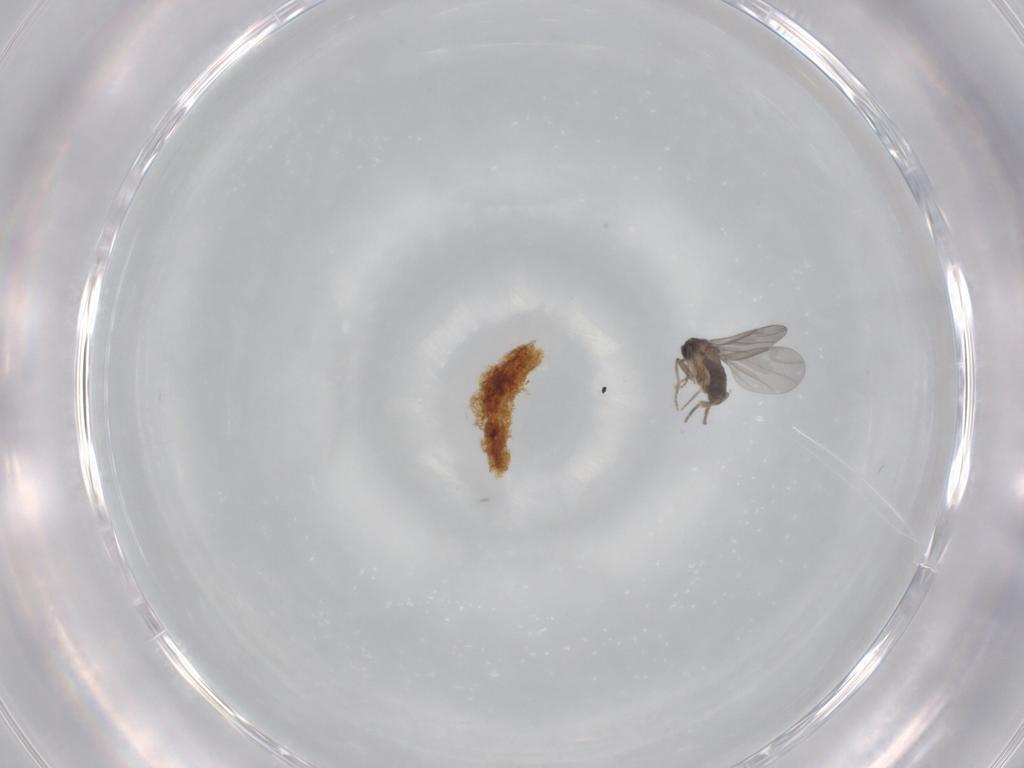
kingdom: Animalia
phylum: Arthropoda
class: Insecta
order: Diptera
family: Limoniidae
